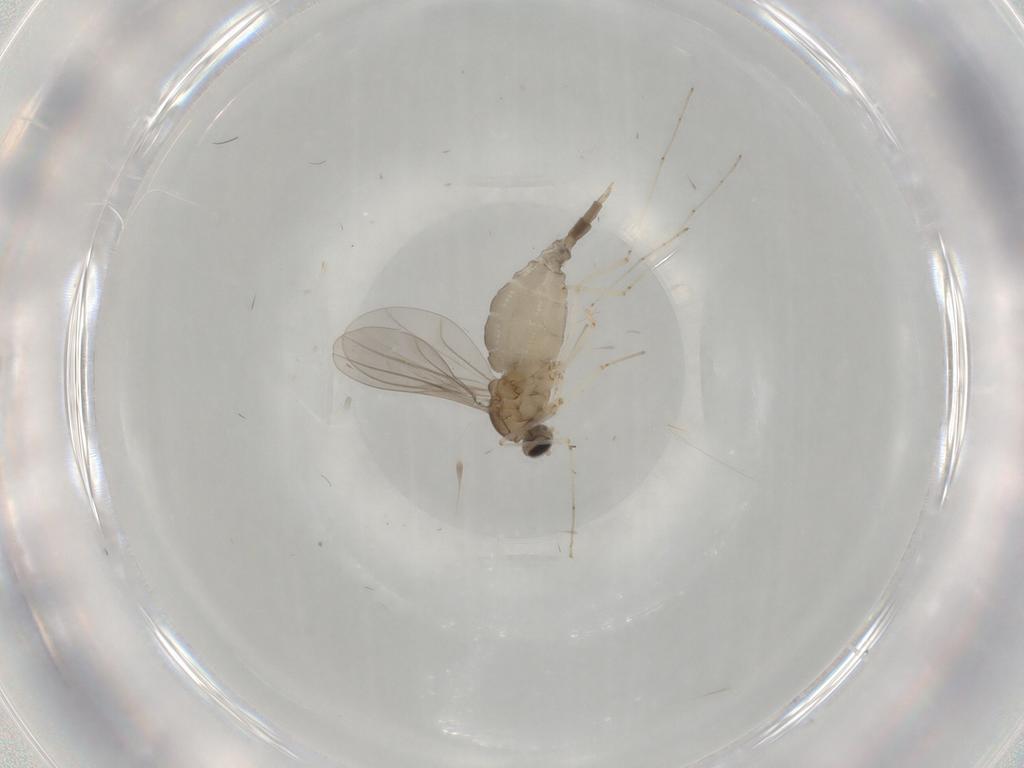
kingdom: Animalia
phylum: Arthropoda
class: Insecta
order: Diptera
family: Cecidomyiidae
